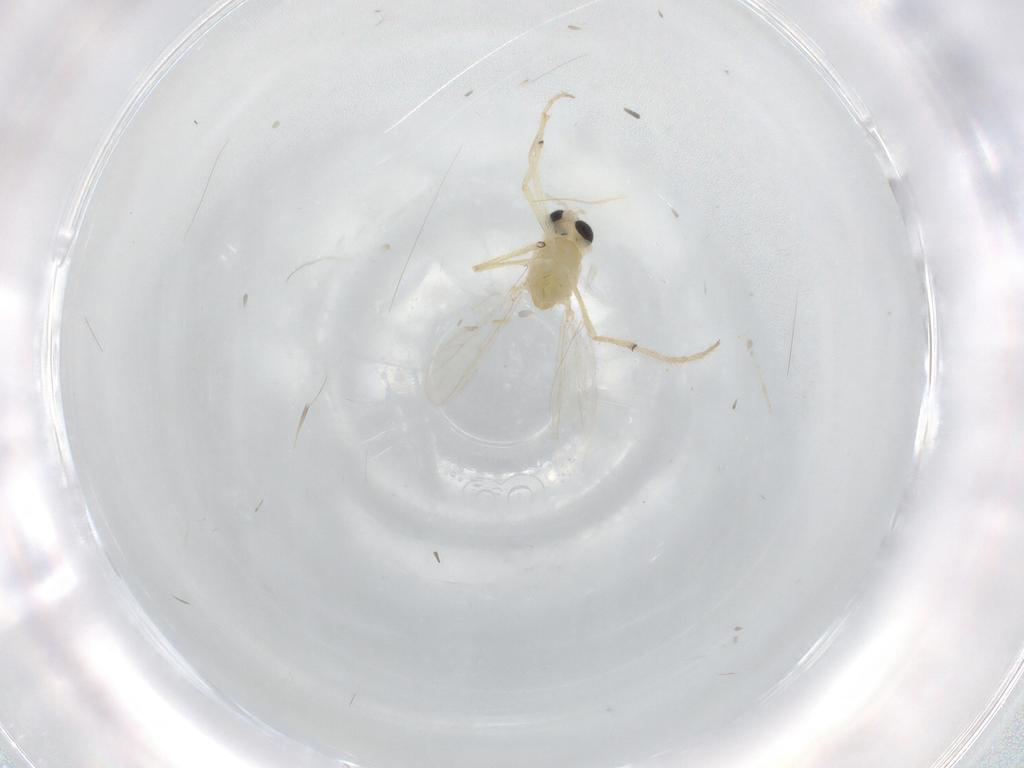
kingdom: Animalia
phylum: Arthropoda
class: Insecta
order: Diptera
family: Chironomidae
